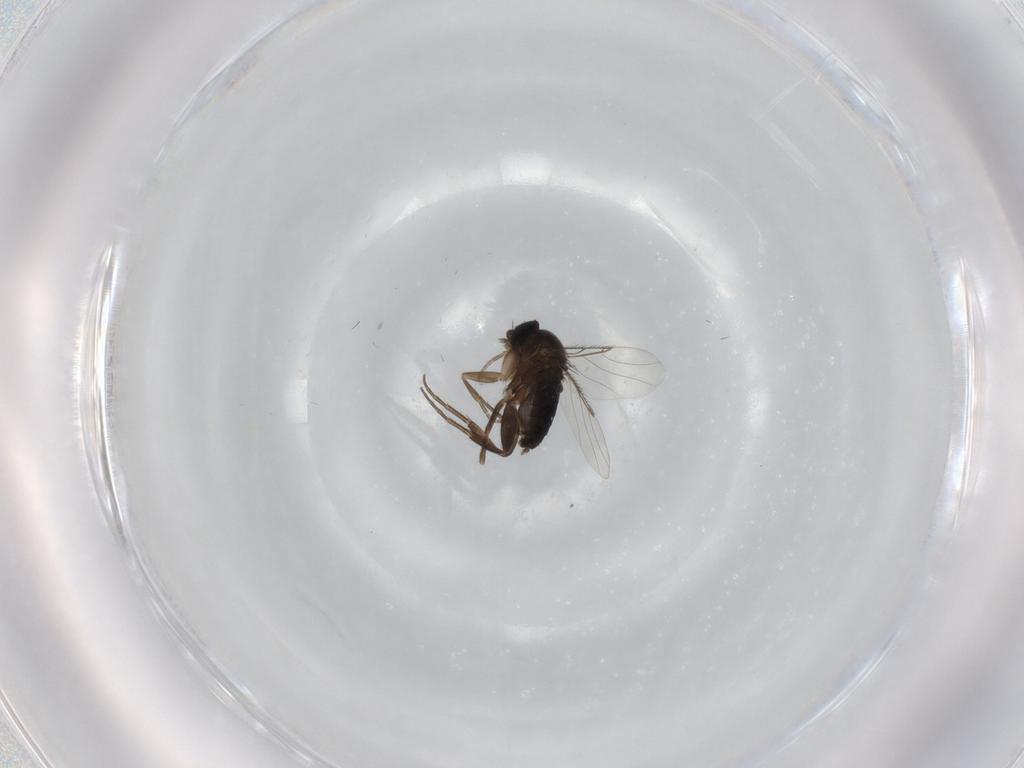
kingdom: Animalia
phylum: Arthropoda
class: Insecta
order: Diptera
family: Phoridae
